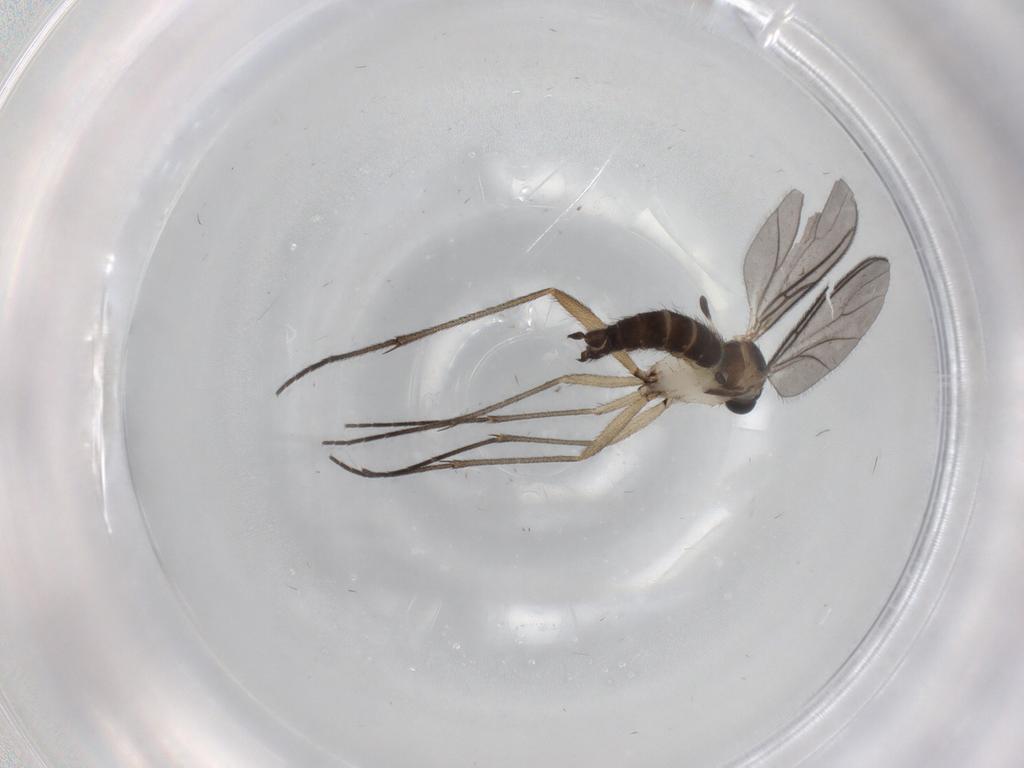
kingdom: Animalia
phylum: Arthropoda
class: Insecta
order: Diptera
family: Sciaridae
